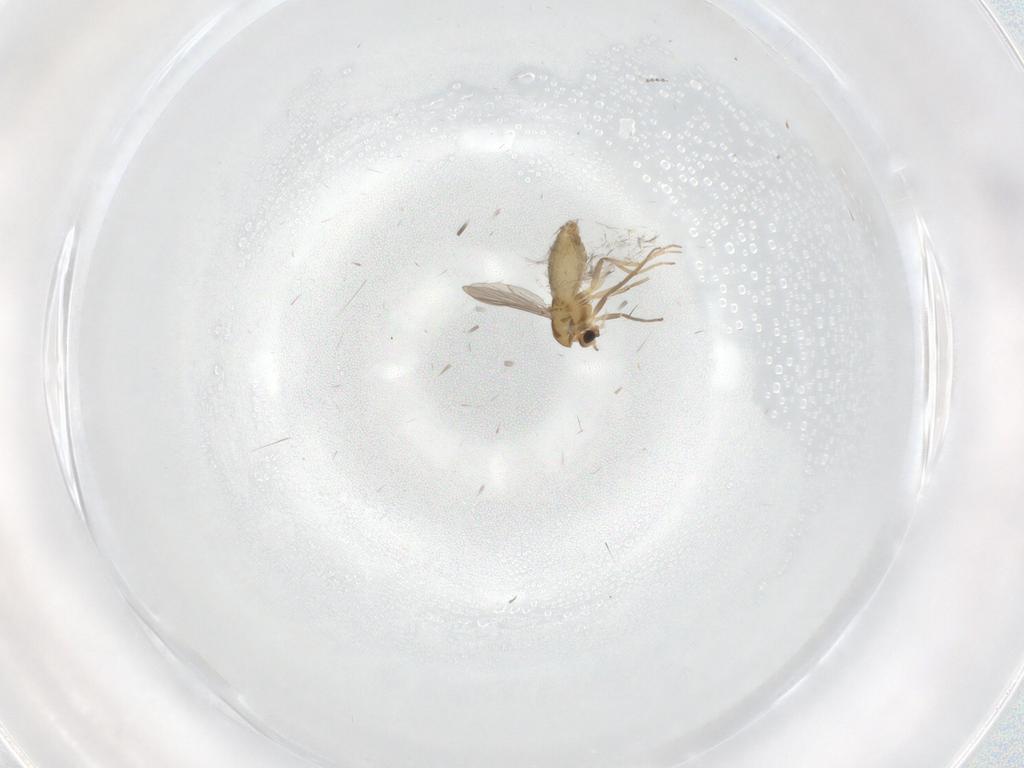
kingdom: Animalia
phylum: Arthropoda
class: Insecta
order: Diptera
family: Chironomidae
